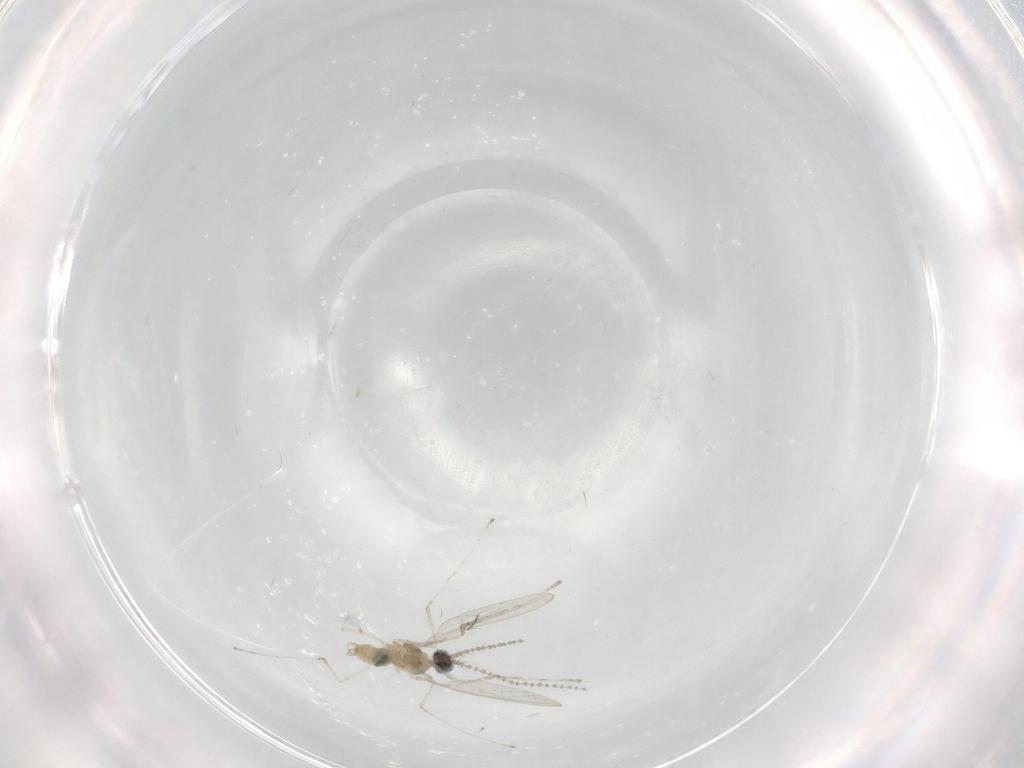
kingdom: Animalia
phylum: Arthropoda
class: Insecta
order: Diptera
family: Cecidomyiidae
